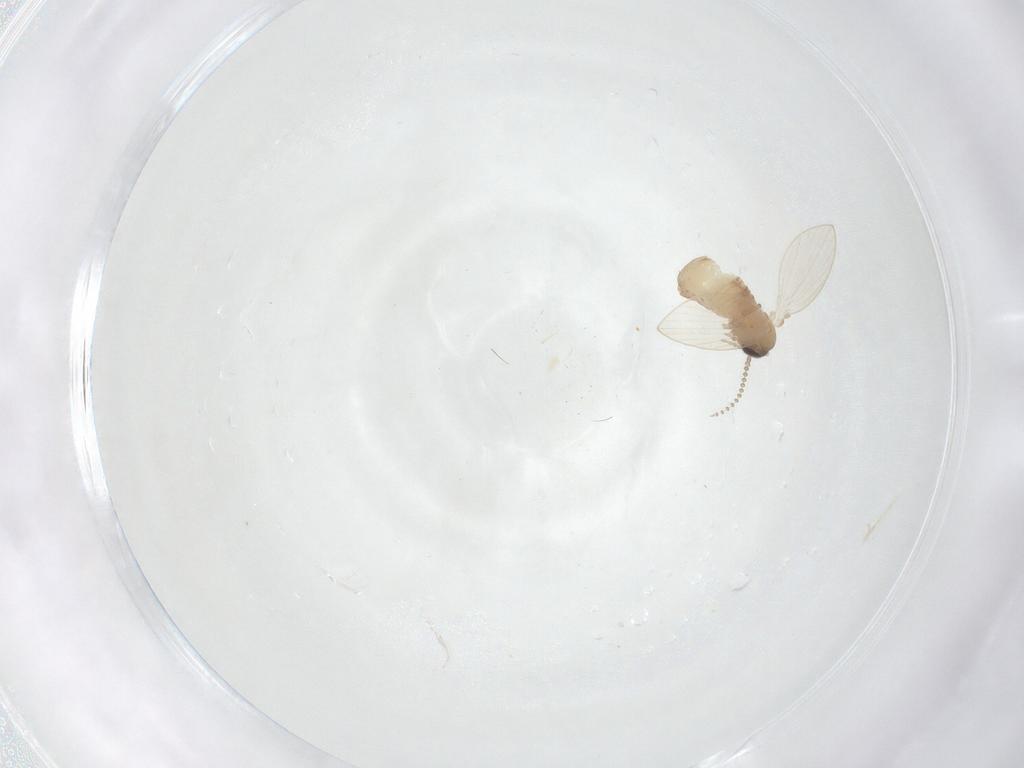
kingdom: Animalia
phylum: Arthropoda
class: Insecta
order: Diptera
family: Psychodidae
